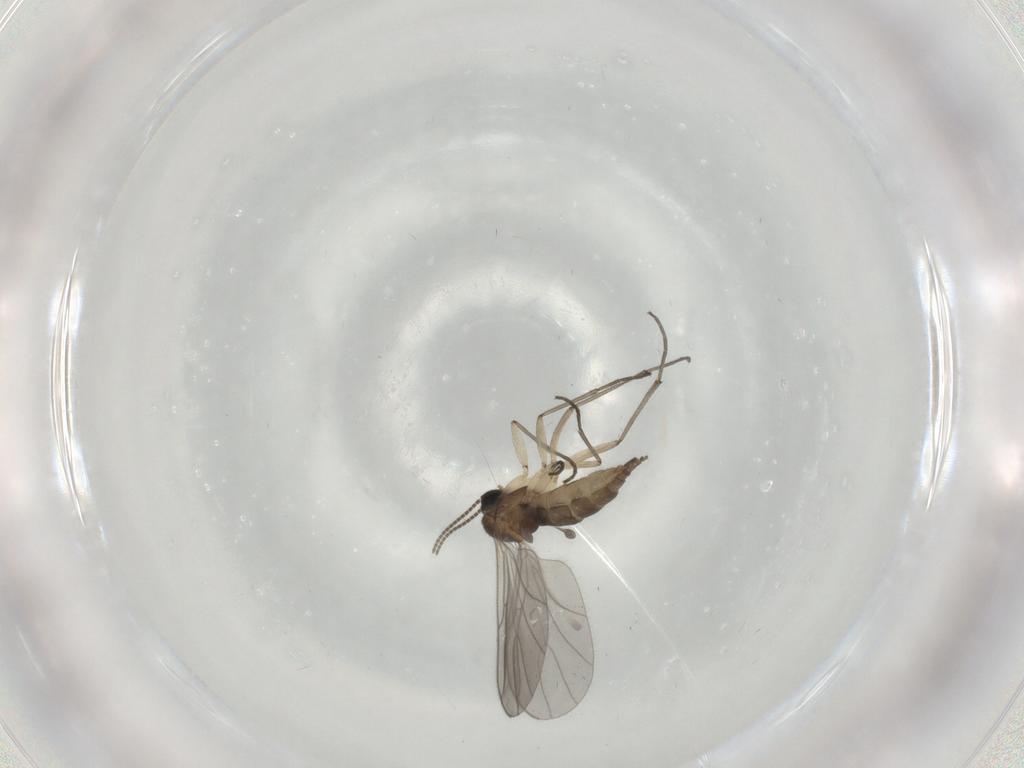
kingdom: Animalia
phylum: Arthropoda
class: Insecta
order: Diptera
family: Sciaridae
